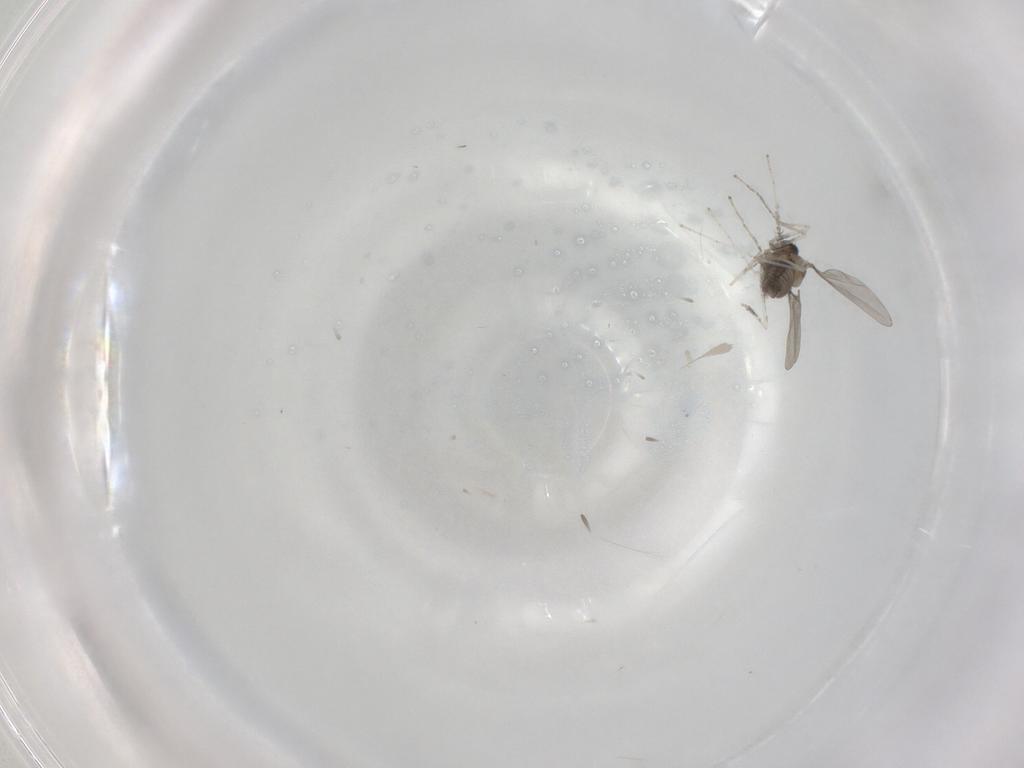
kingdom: Animalia
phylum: Arthropoda
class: Insecta
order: Diptera
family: Cecidomyiidae
